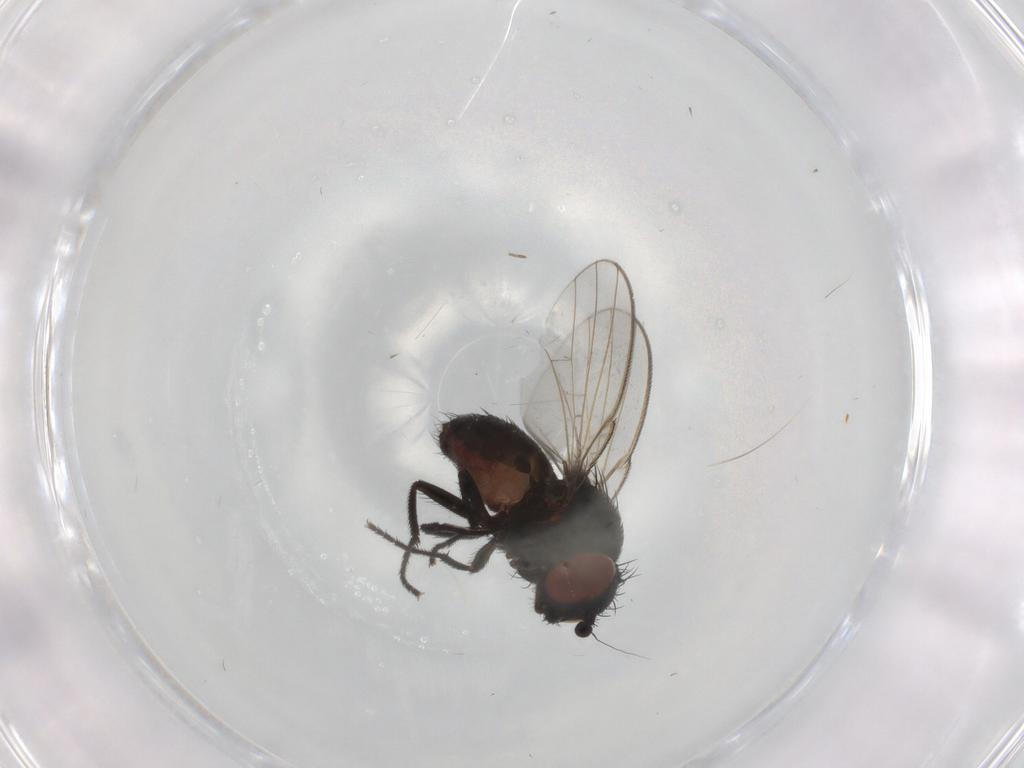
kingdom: Animalia
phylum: Arthropoda
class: Insecta
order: Diptera
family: Milichiidae
